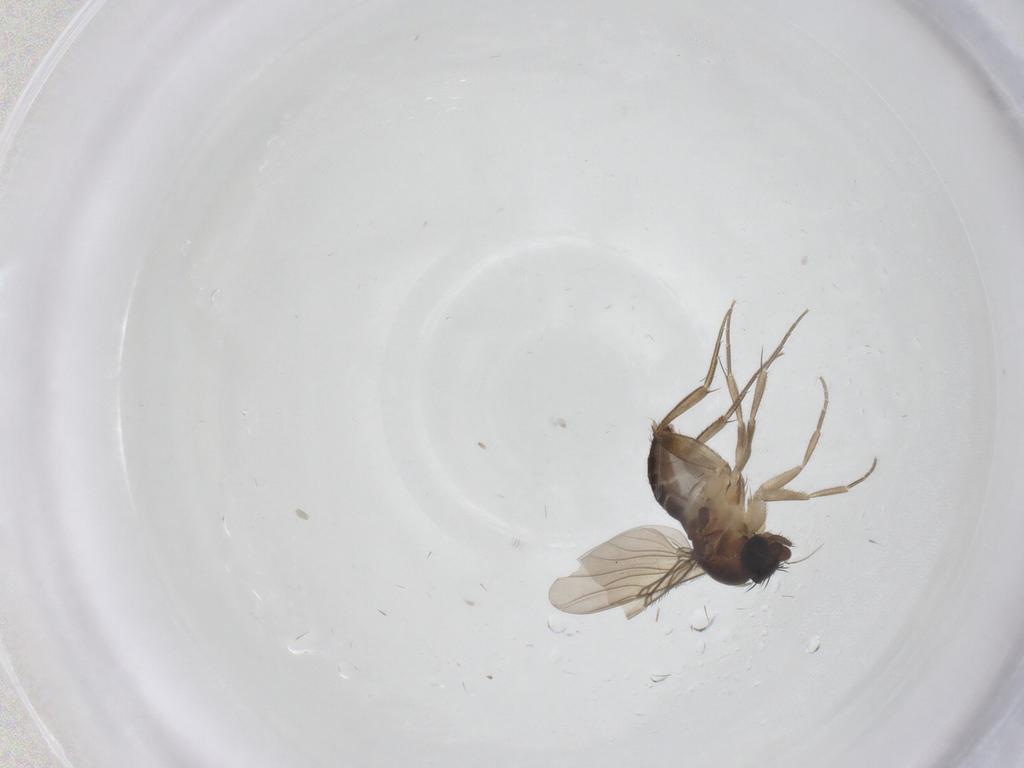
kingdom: Animalia
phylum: Arthropoda
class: Insecta
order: Diptera
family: Phoridae
